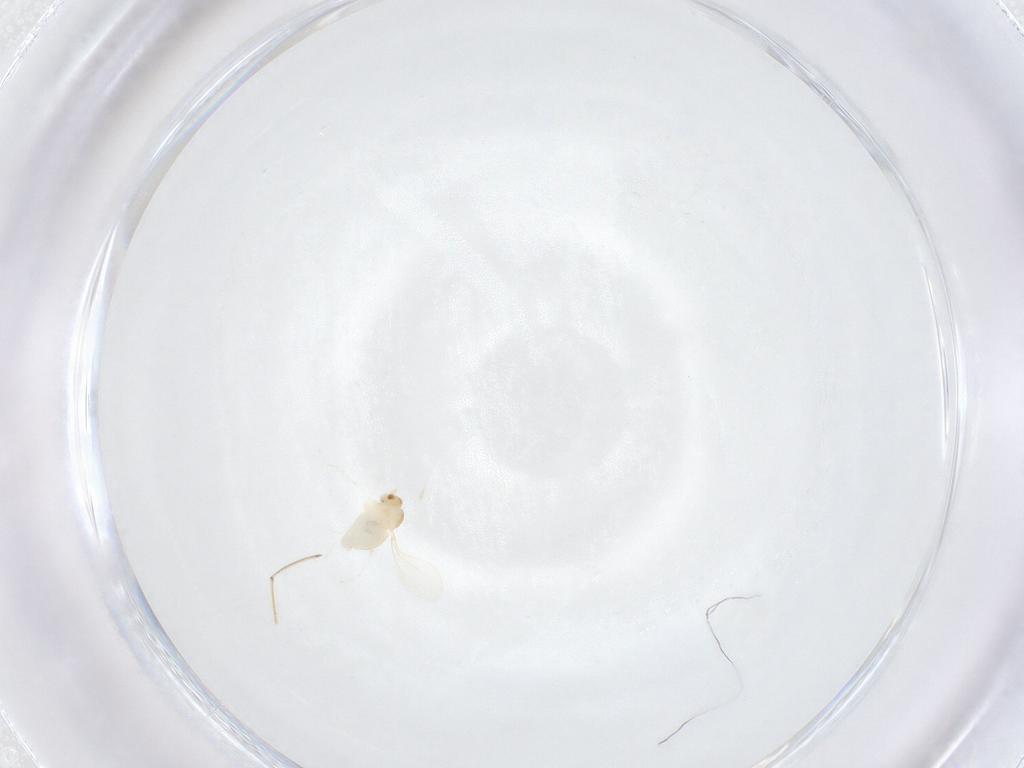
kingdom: Animalia
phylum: Arthropoda
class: Insecta
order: Diptera
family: Cecidomyiidae
